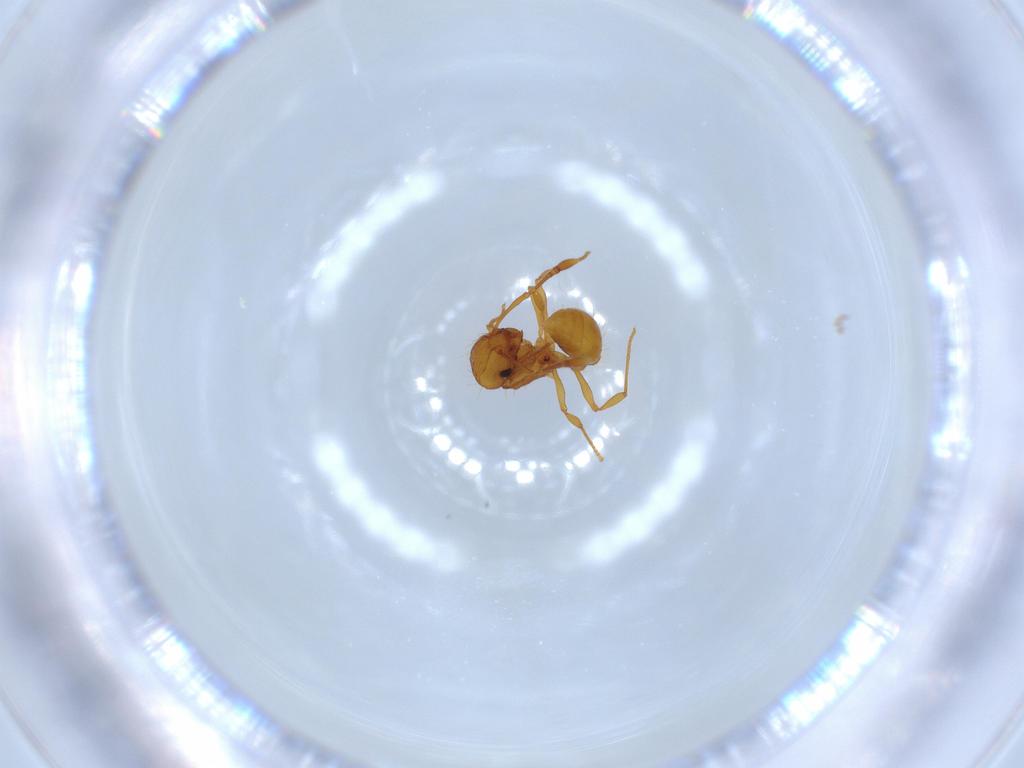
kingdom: Animalia
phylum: Arthropoda
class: Insecta
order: Hymenoptera
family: Formicidae
